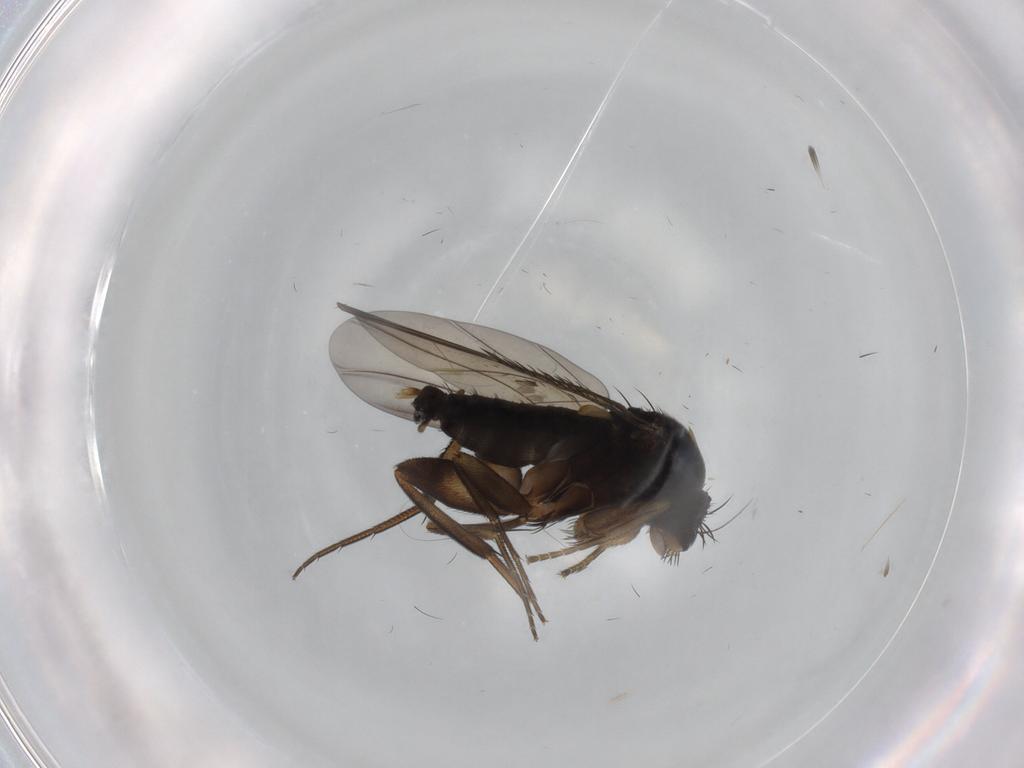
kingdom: Animalia
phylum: Arthropoda
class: Insecta
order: Diptera
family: Phoridae
